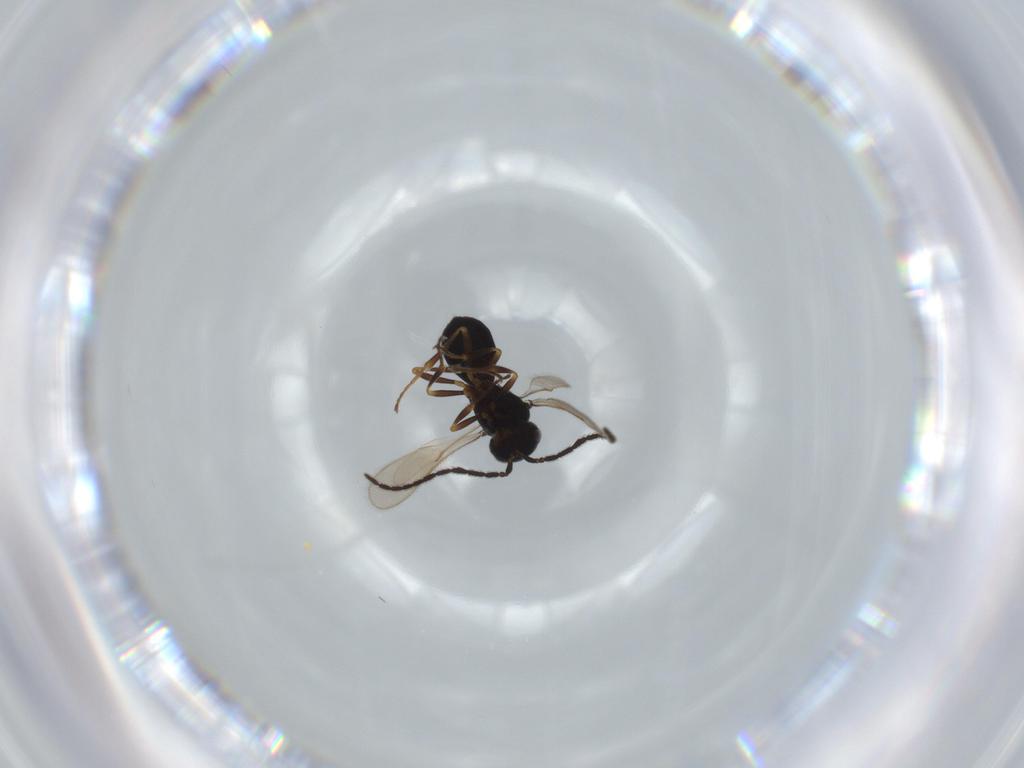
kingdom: Animalia
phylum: Arthropoda
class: Insecta
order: Hymenoptera
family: Scelionidae
